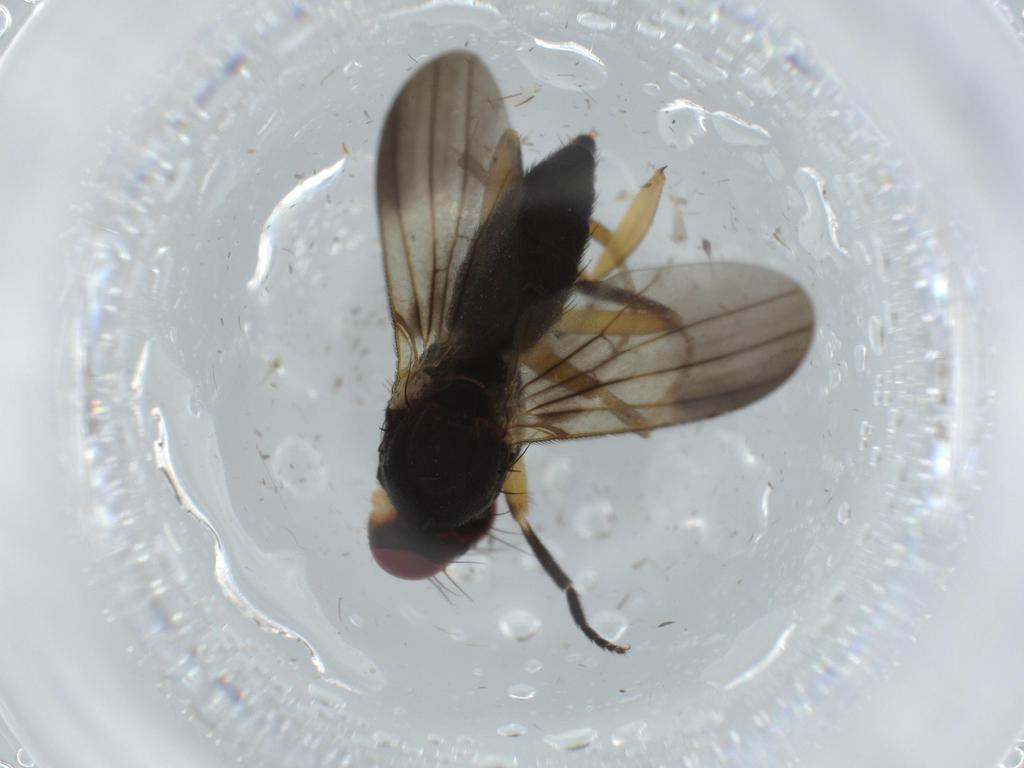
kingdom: Animalia
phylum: Arthropoda
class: Insecta
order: Diptera
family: Clusiidae
